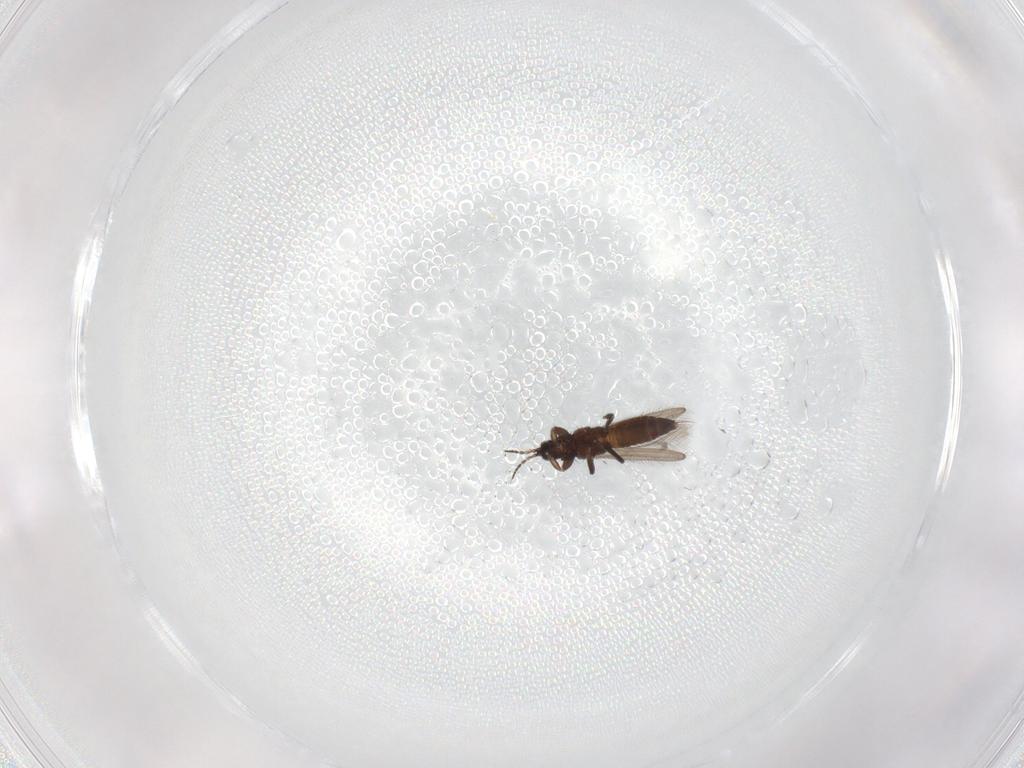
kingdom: Animalia
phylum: Arthropoda
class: Insecta
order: Thysanoptera
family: Melanthripidae
